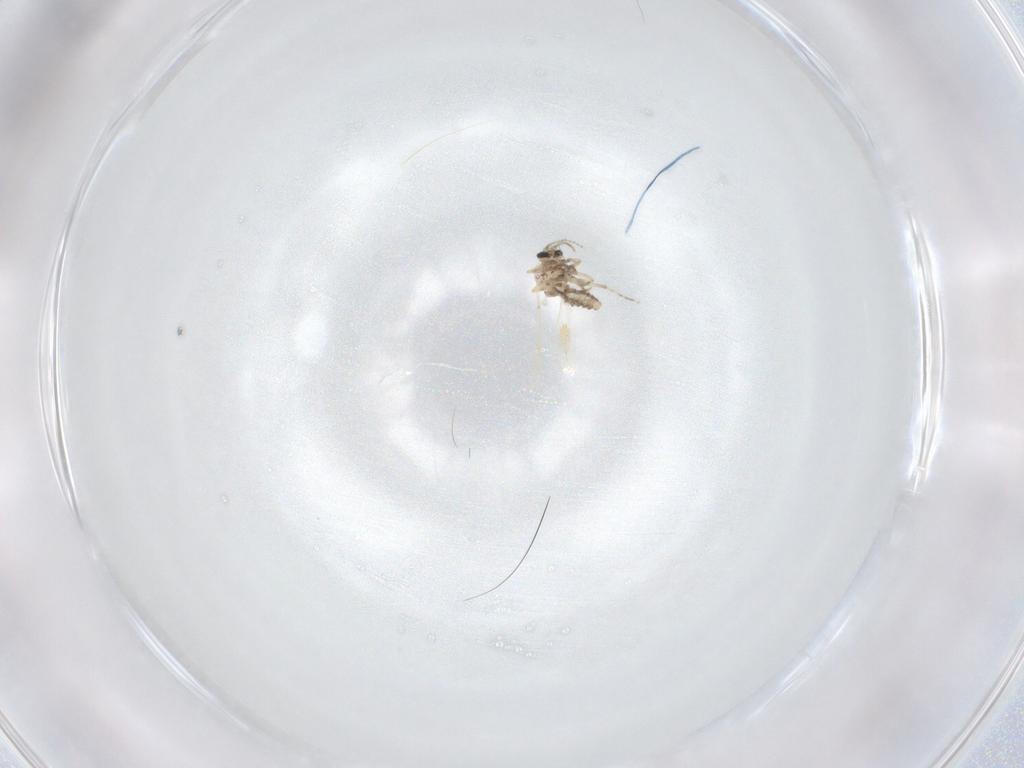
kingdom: Animalia
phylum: Arthropoda
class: Insecta
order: Diptera
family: Ceratopogonidae
